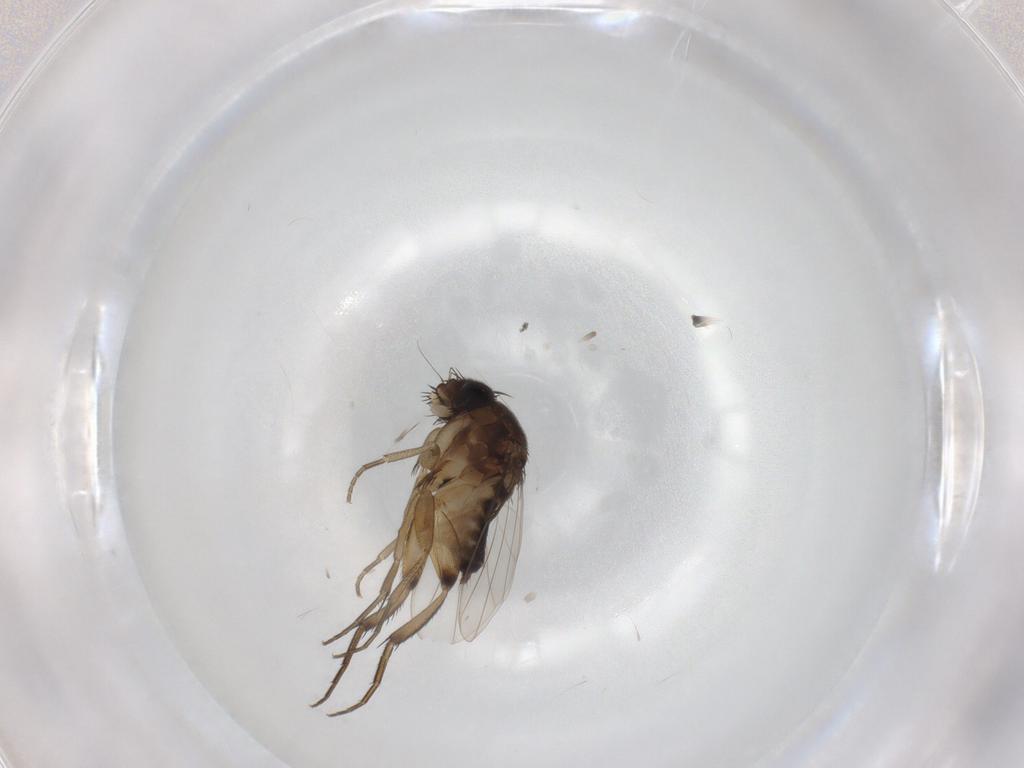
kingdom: Animalia
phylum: Arthropoda
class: Insecta
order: Diptera
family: Phoridae
